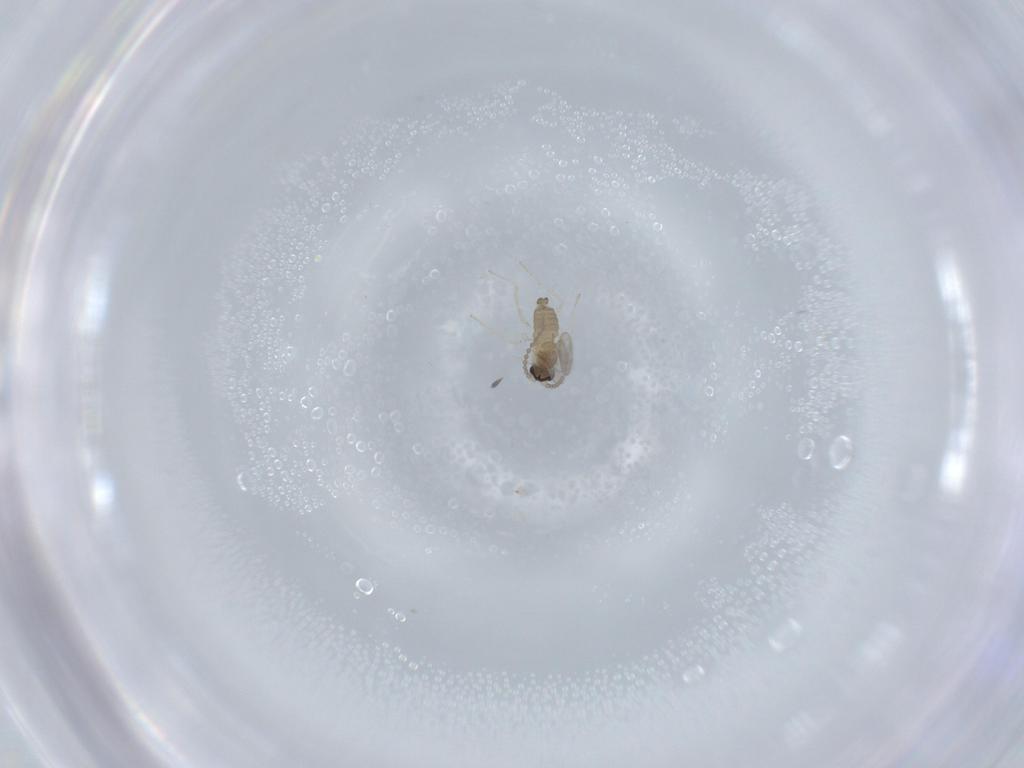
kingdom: Animalia
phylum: Arthropoda
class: Insecta
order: Diptera
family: Cecidomyiidae
